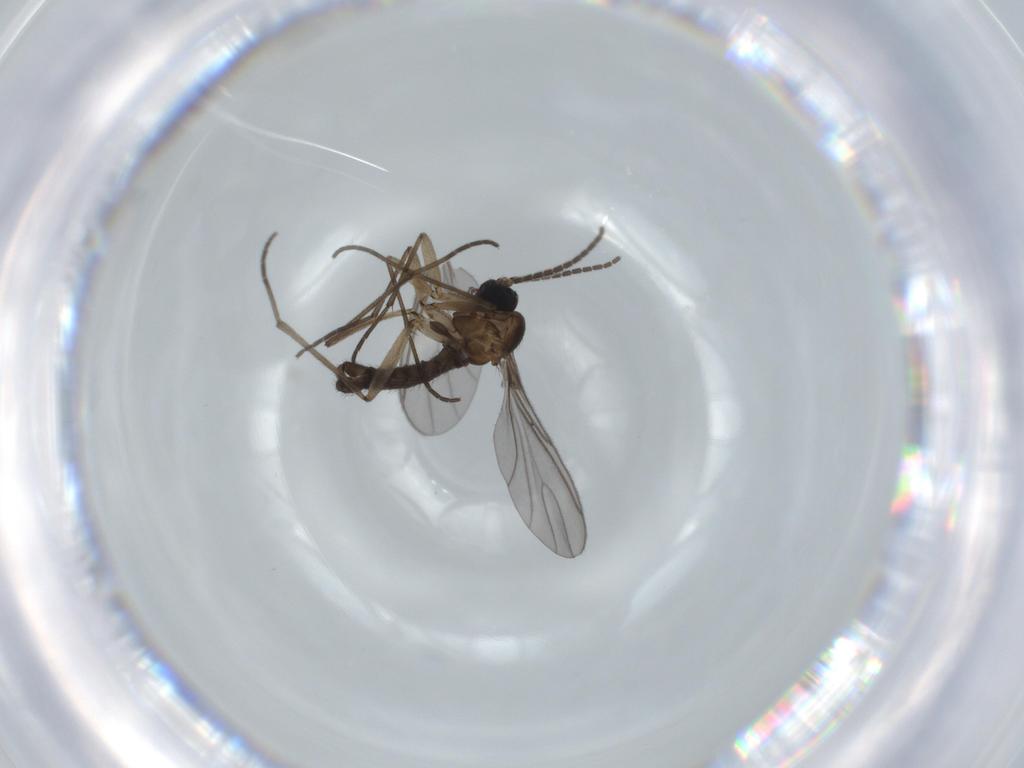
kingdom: Animalia
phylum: Arthropoda
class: Insecta
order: Diptera
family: Sciaridae
